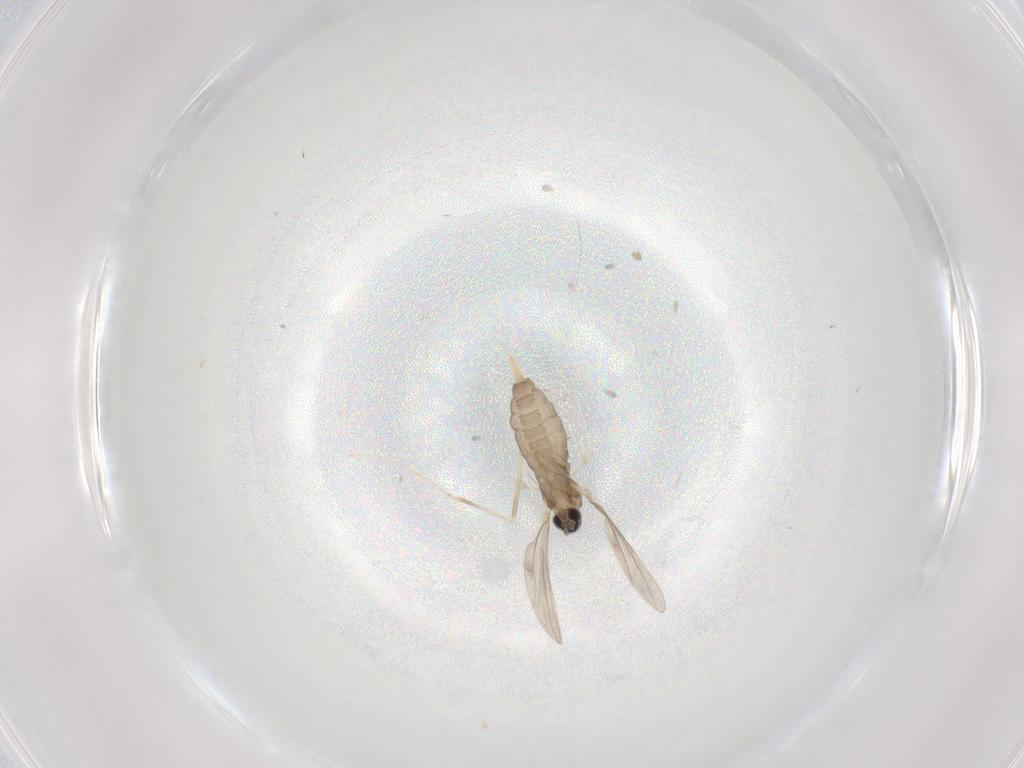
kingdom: Animalia
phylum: Arthropoda
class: Insecta
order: Diptera
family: Cecidomyiidae
